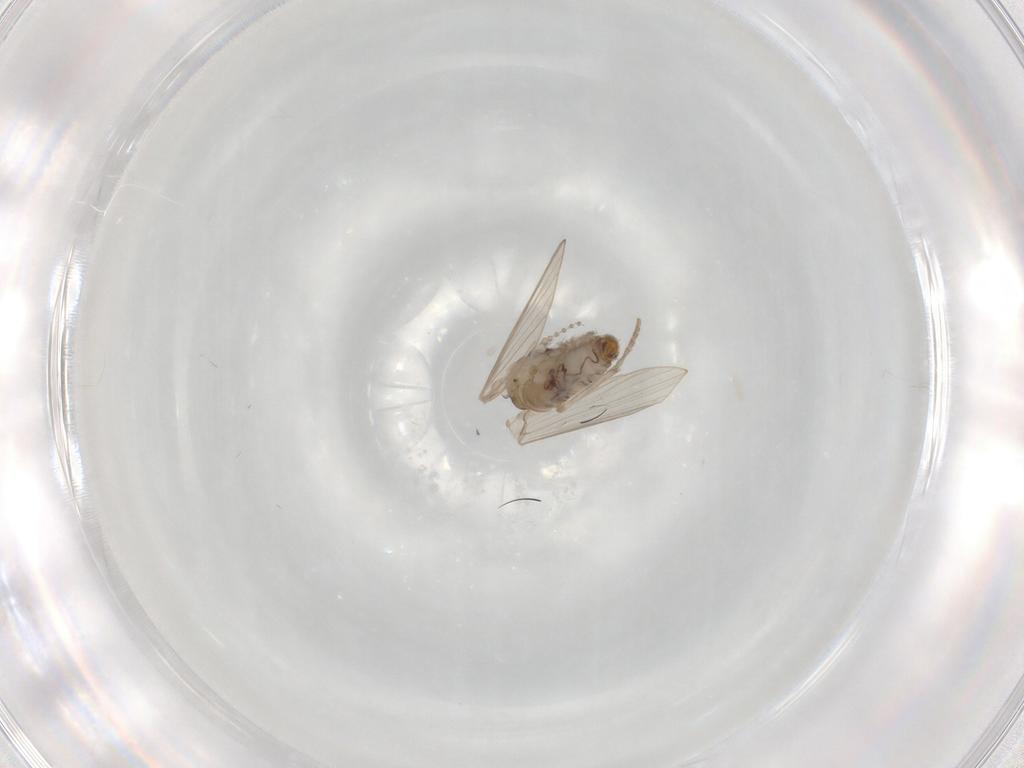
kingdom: Animalia
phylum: Arthropoda
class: Insecta
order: Diptera
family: Psychodidae
